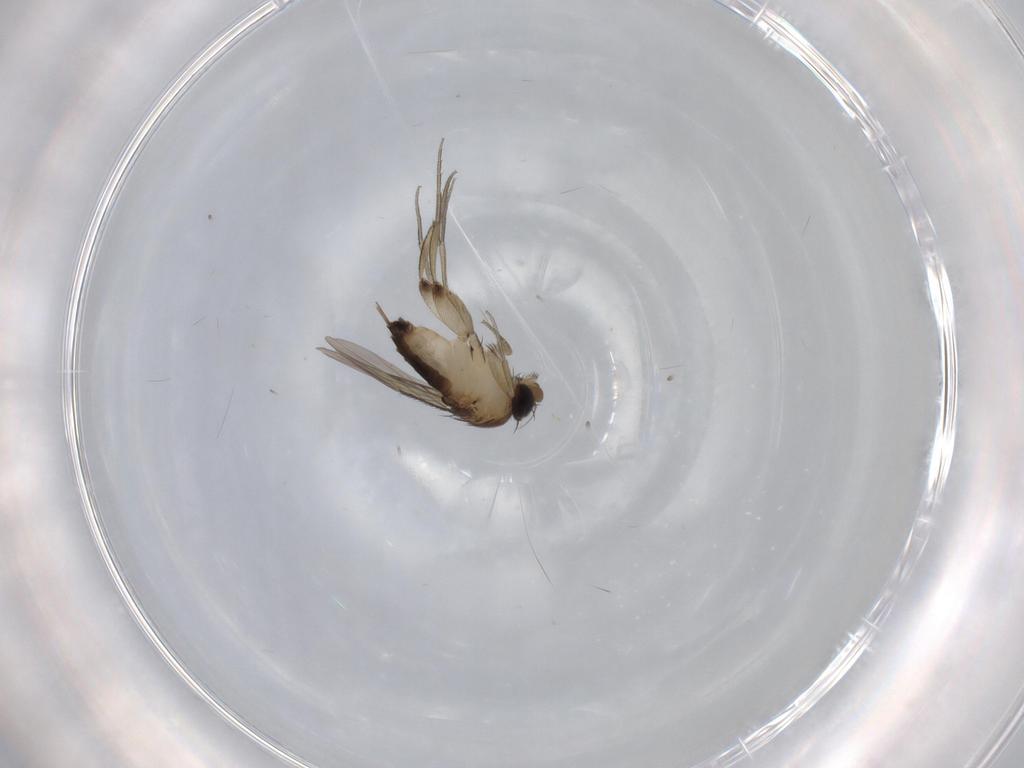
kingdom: Animalia
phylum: Arthropoda
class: Insecta
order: Diptera
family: Phoridae
